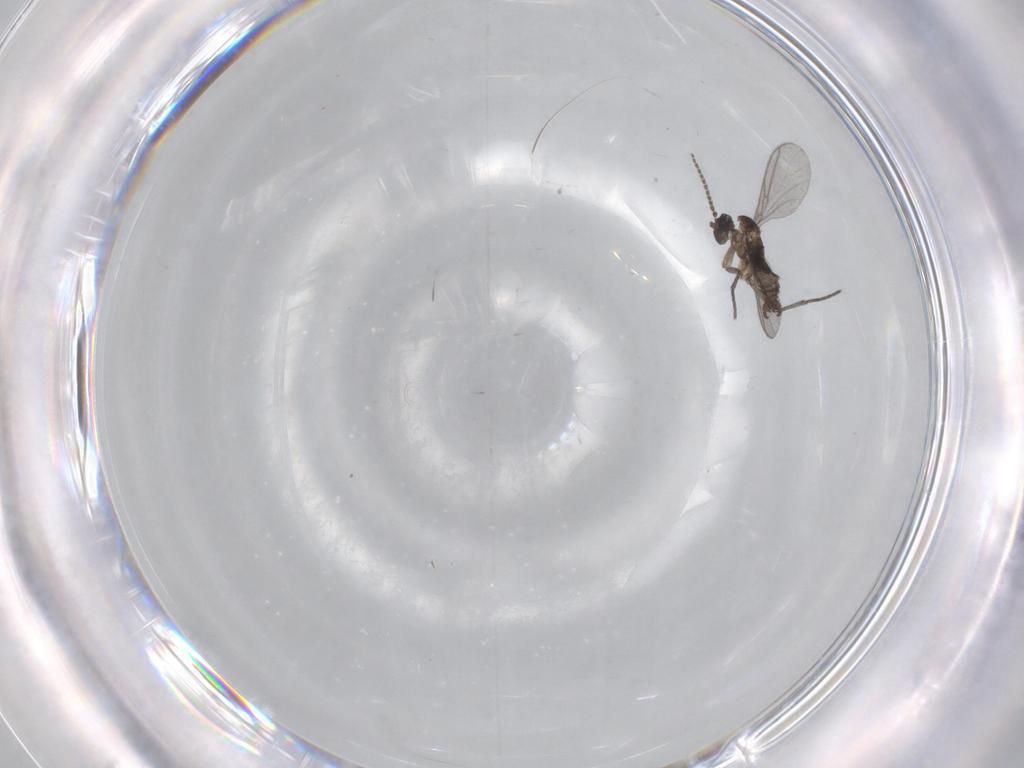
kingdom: Animalia
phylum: Arthropoda
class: Insecta
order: Diptera
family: Chironomidae
